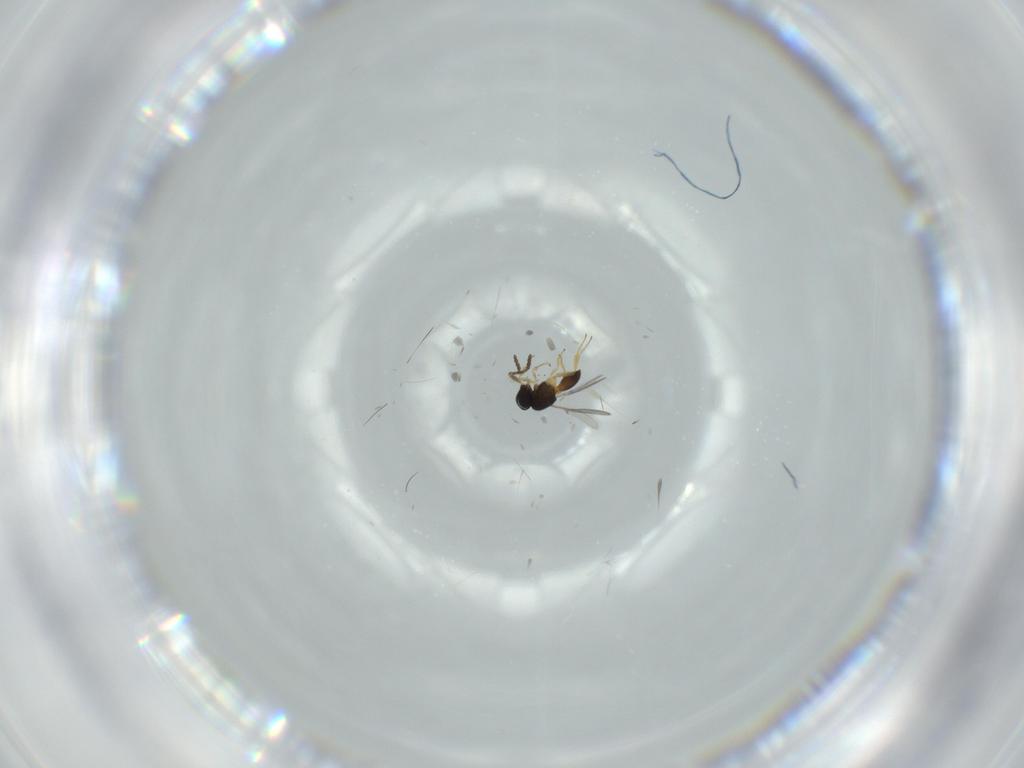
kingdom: Animalia
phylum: Arthropoda
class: Insecta
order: Hymenoptera
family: Scelionidae
